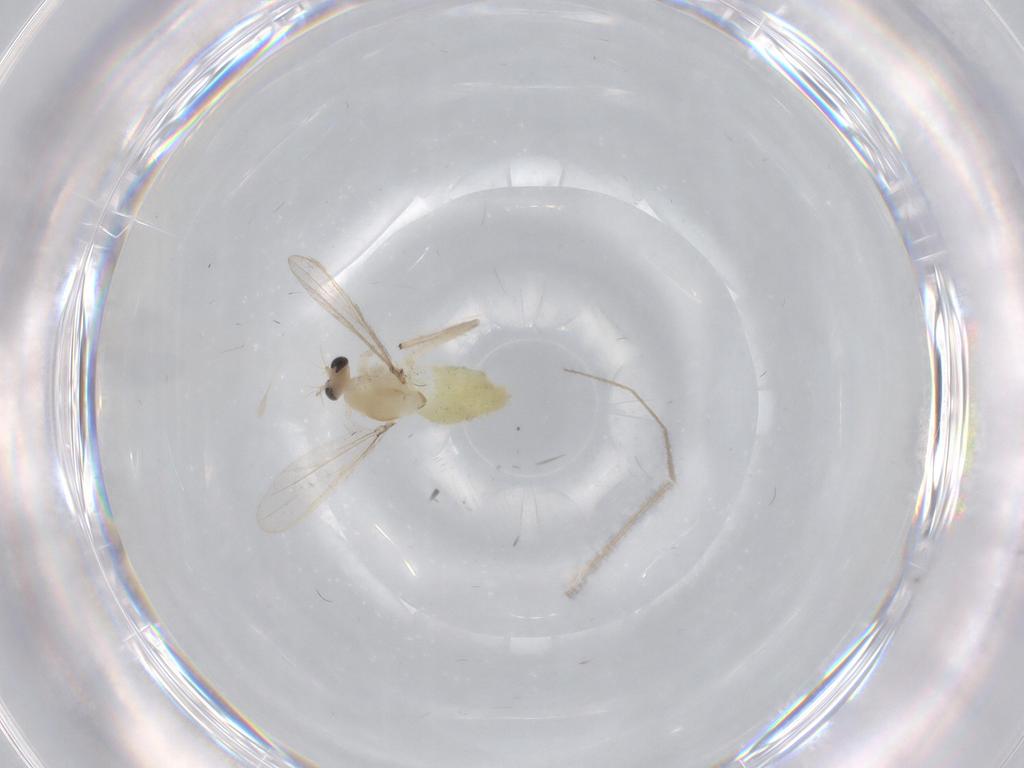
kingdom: Animalia
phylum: Arthropoda
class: Insecta
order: Diptera
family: Chironomidae
